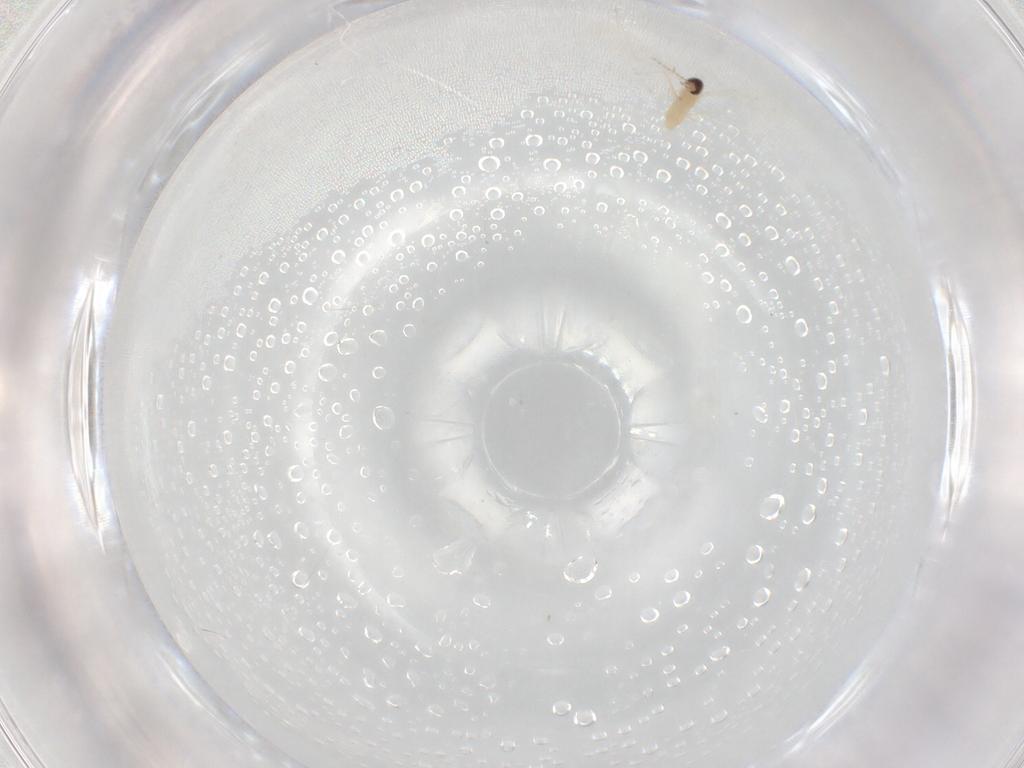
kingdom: Animalia
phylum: Arthropoda
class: Insecta
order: Diptera
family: Cecidomyiidae
